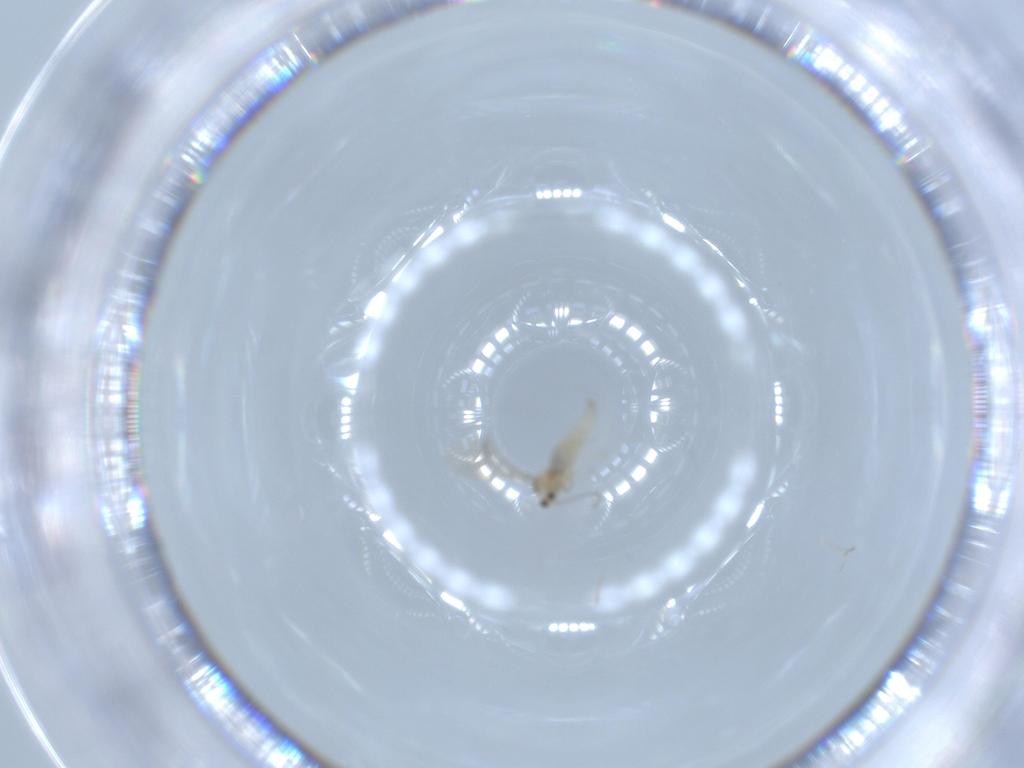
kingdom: Animalia
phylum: Arthropoda
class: Insecta
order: Diptera
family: Cecidomyiidae
